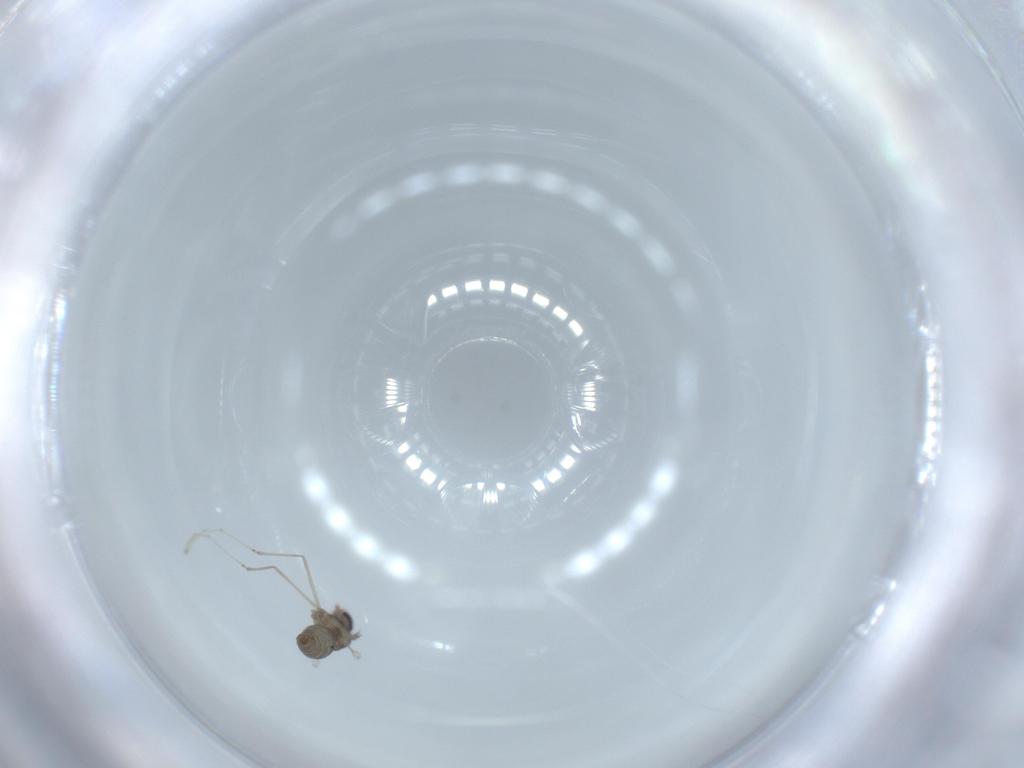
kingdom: Animalia
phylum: Arthropoda
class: Insecta
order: Diptera
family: Cecidomyiidae
